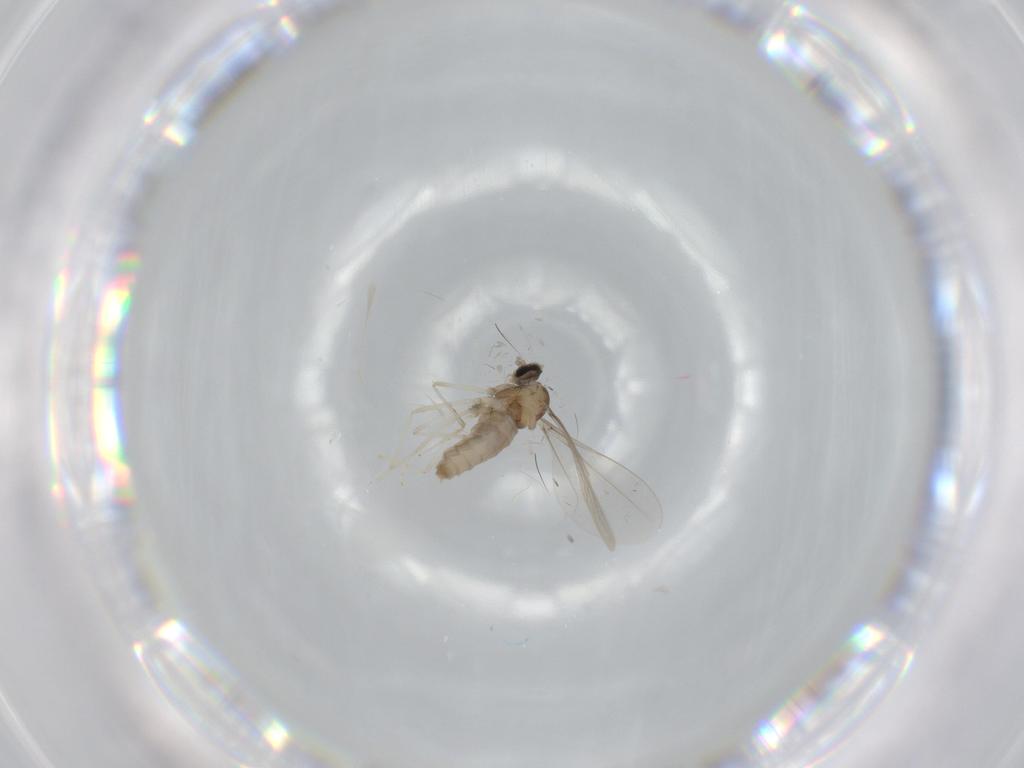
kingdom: Animalia
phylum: Arthropoda
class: Insecta
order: Diptera
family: Cecidomyiidae
